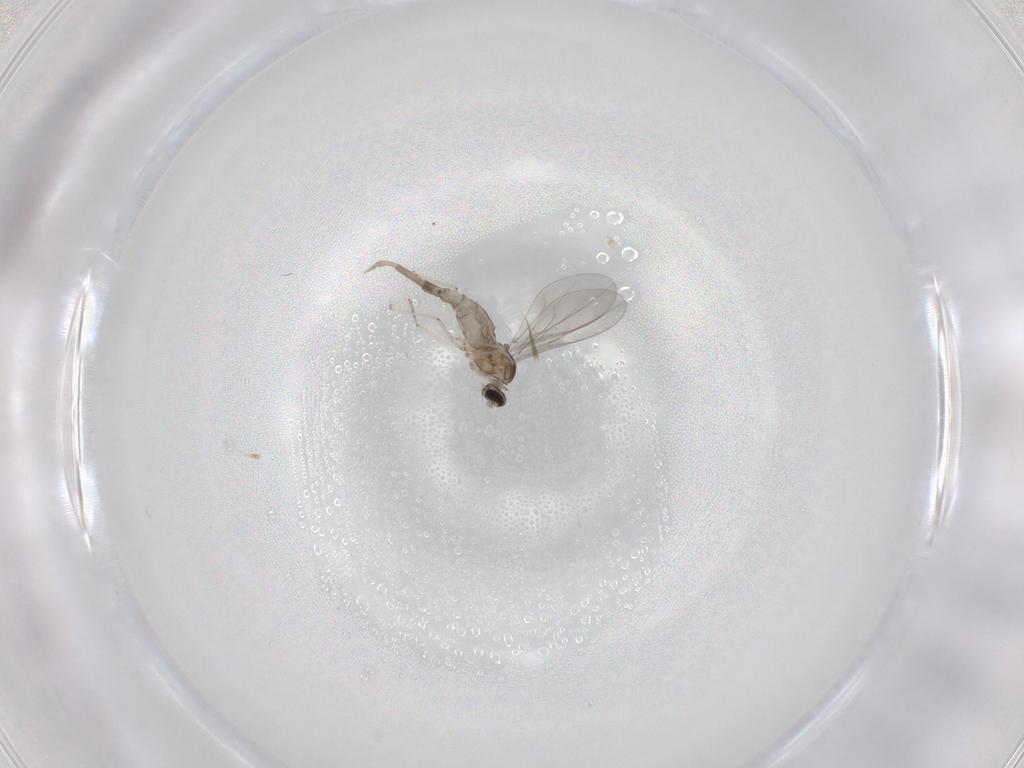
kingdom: Animalia
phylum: Arthropoda
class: Insecta
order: Diptera
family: Cecidomyiidae
